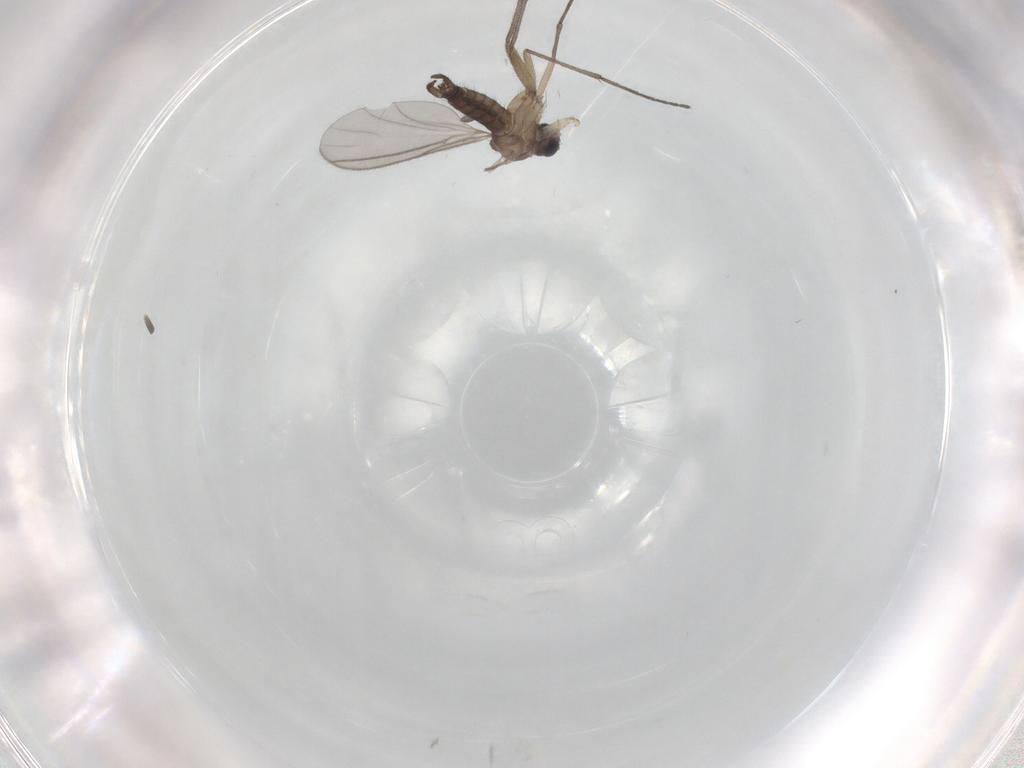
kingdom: Animalia
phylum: Arthropoda
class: Insecta
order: Diptera
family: Sciaridae
